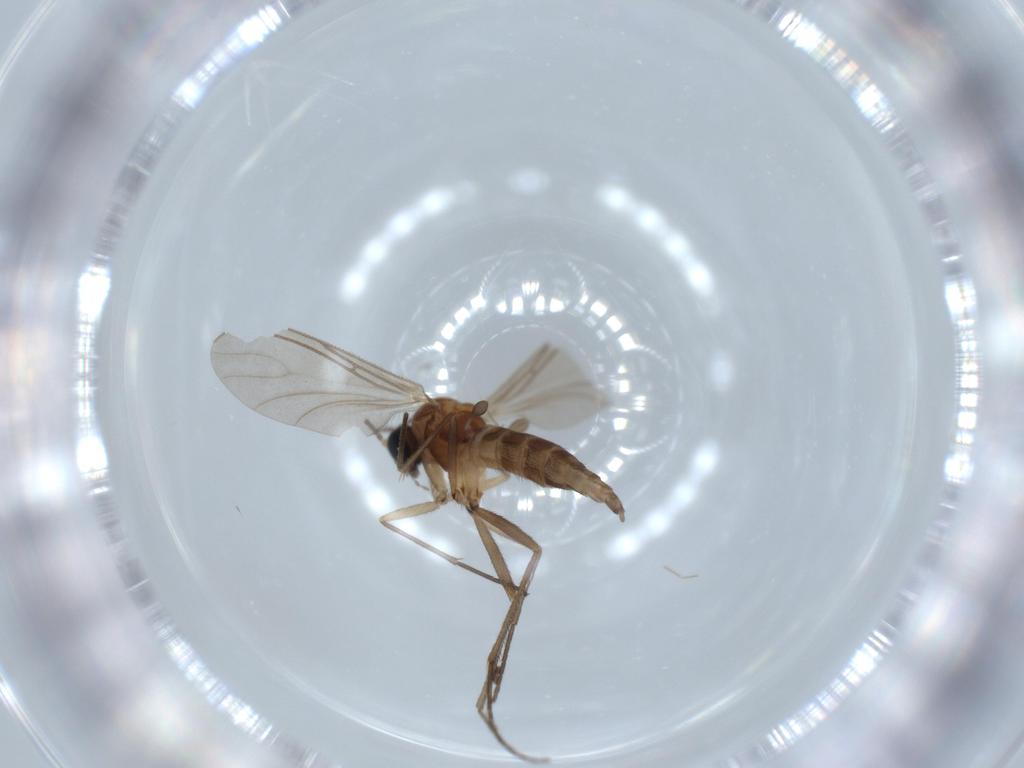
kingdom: Animalia
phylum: Arthropoda
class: Insecta
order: Diptera
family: Sciaridae
